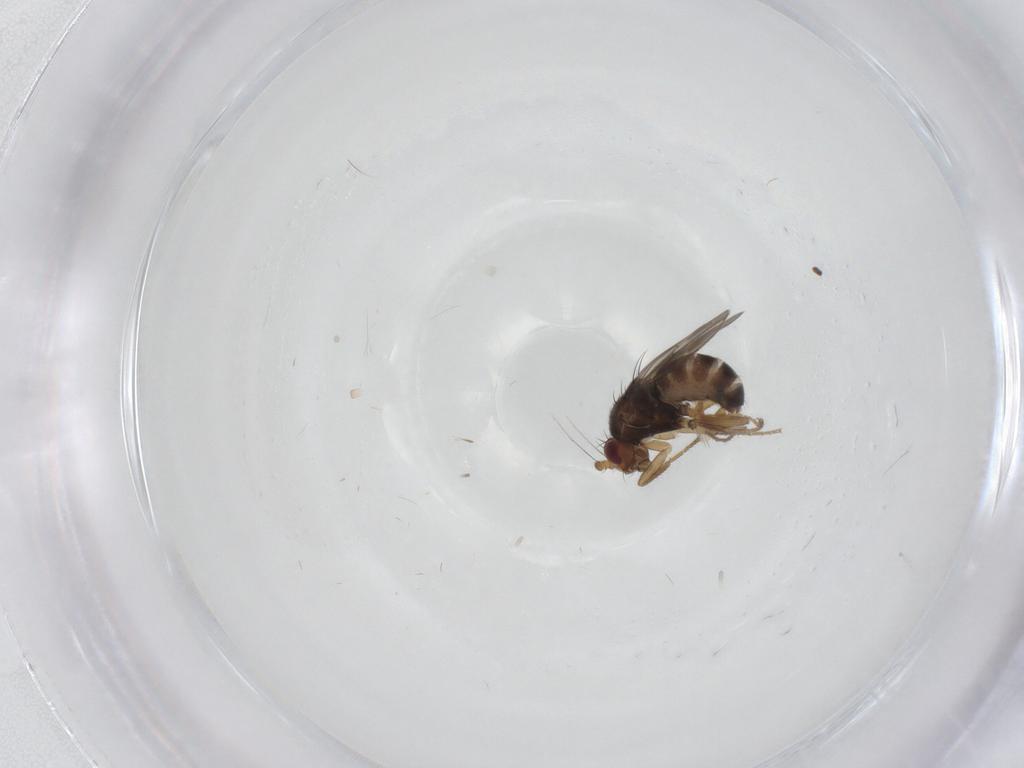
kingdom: Animalia
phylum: Arthropoda
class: Insecta
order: Diptera
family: Sphaeroceridae
